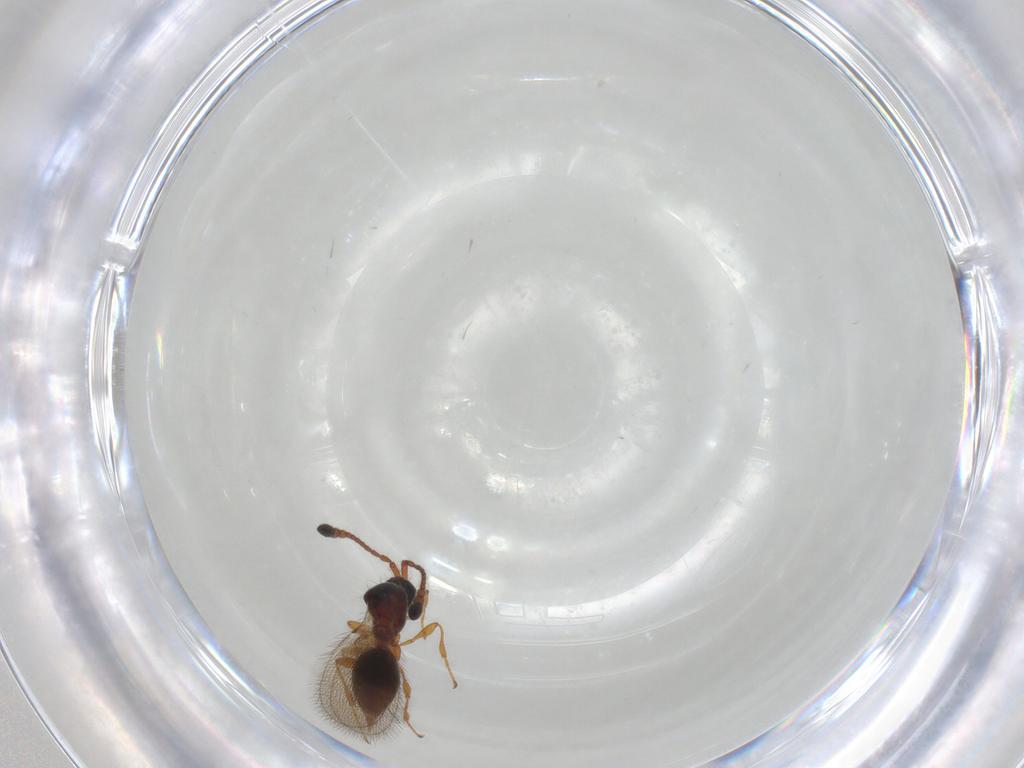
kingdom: Animalia
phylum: Arthropoda
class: Insecta
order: Hymenoptera
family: Diapriidae
